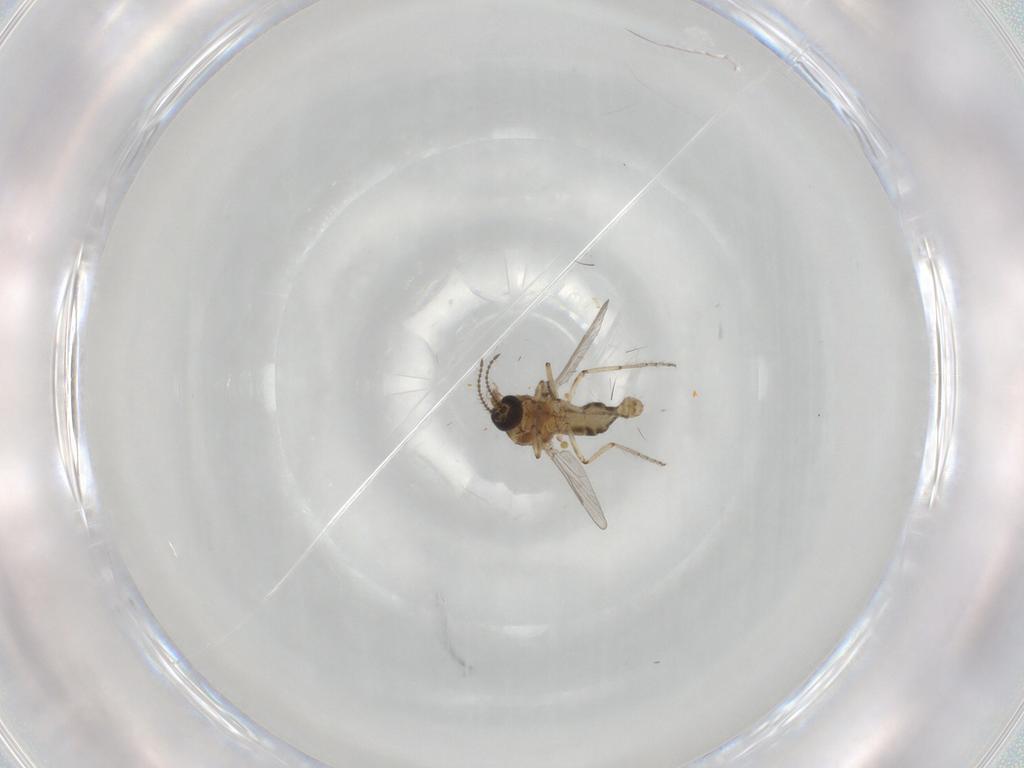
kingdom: Animalia
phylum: Arthropoda
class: Insecta
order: Diptera
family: Ceratopogonidae
